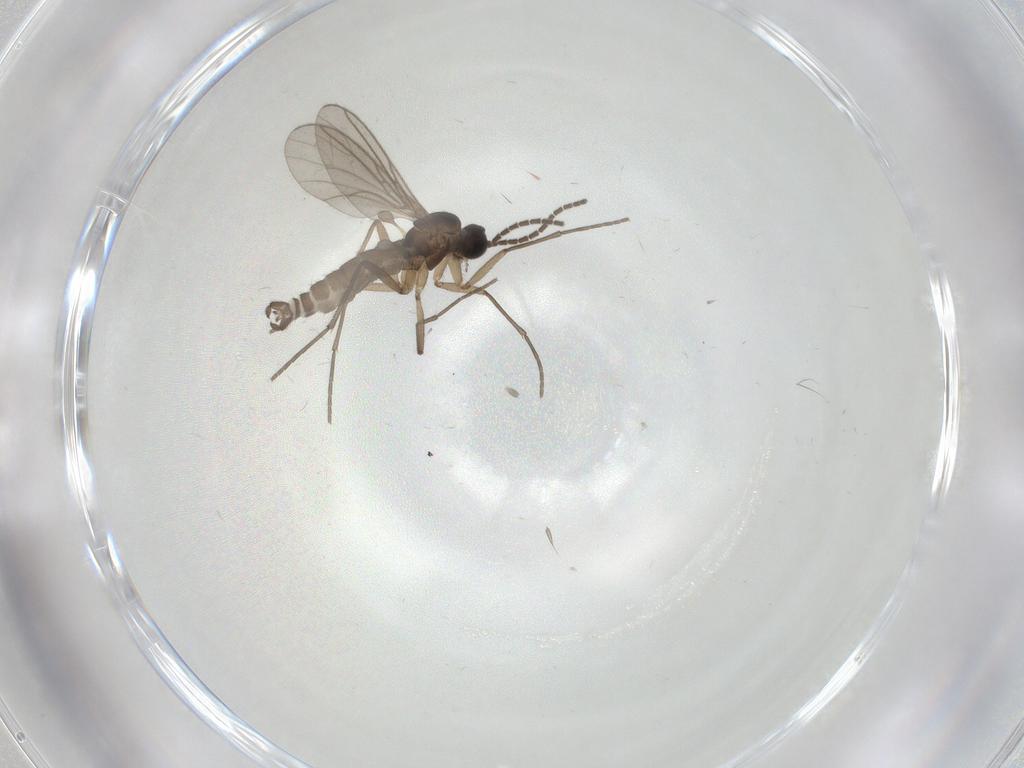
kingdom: Animalia
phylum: Arthropoda
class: Insecta
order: Diptera
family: Sciaridae
